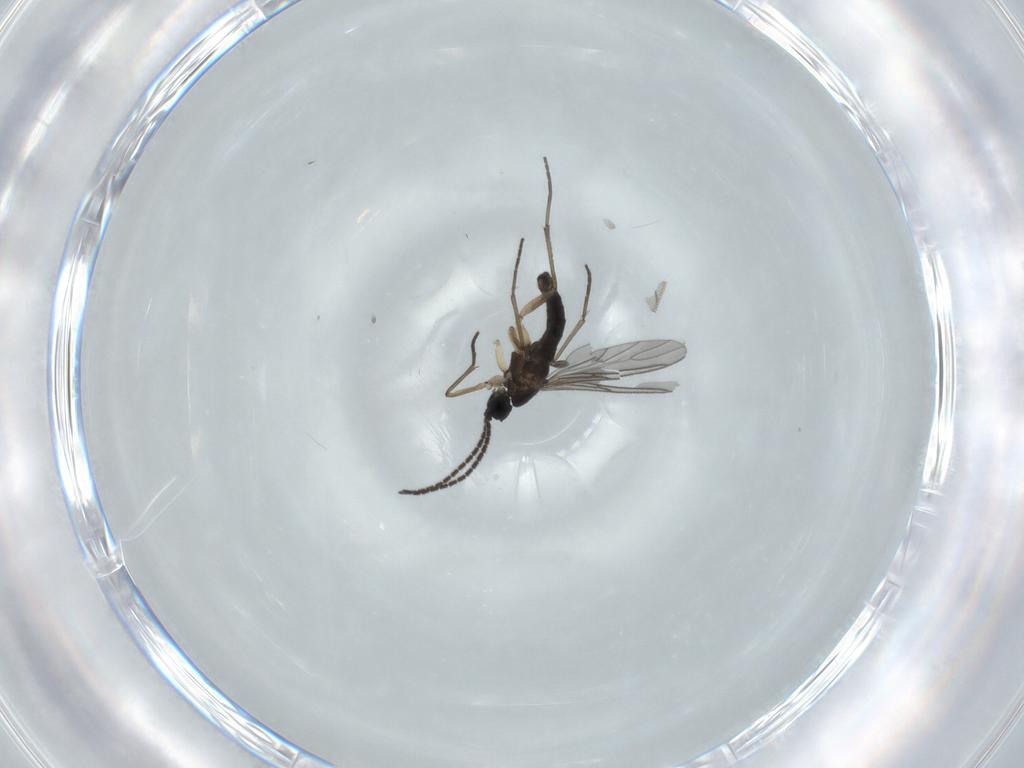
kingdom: Animalia
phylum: Arthropoda
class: Insecta
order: Diptera
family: Sciaridae
